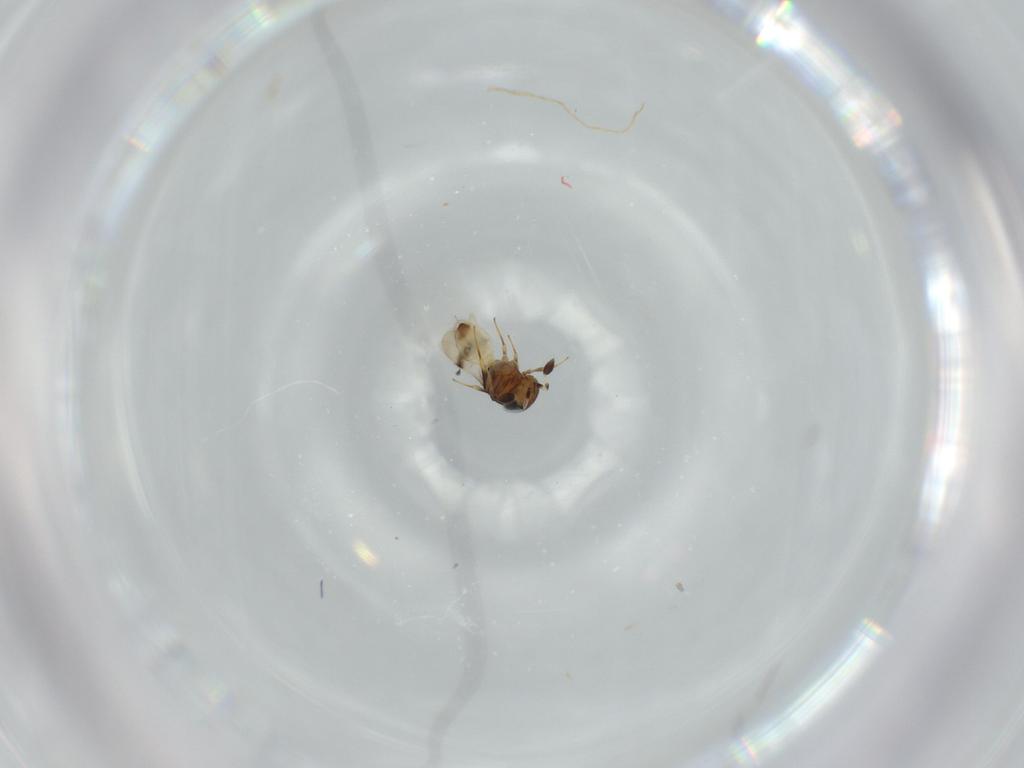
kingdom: Animalia
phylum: Arthropoda
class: Arachnida
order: Araneae
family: Pholcidae
